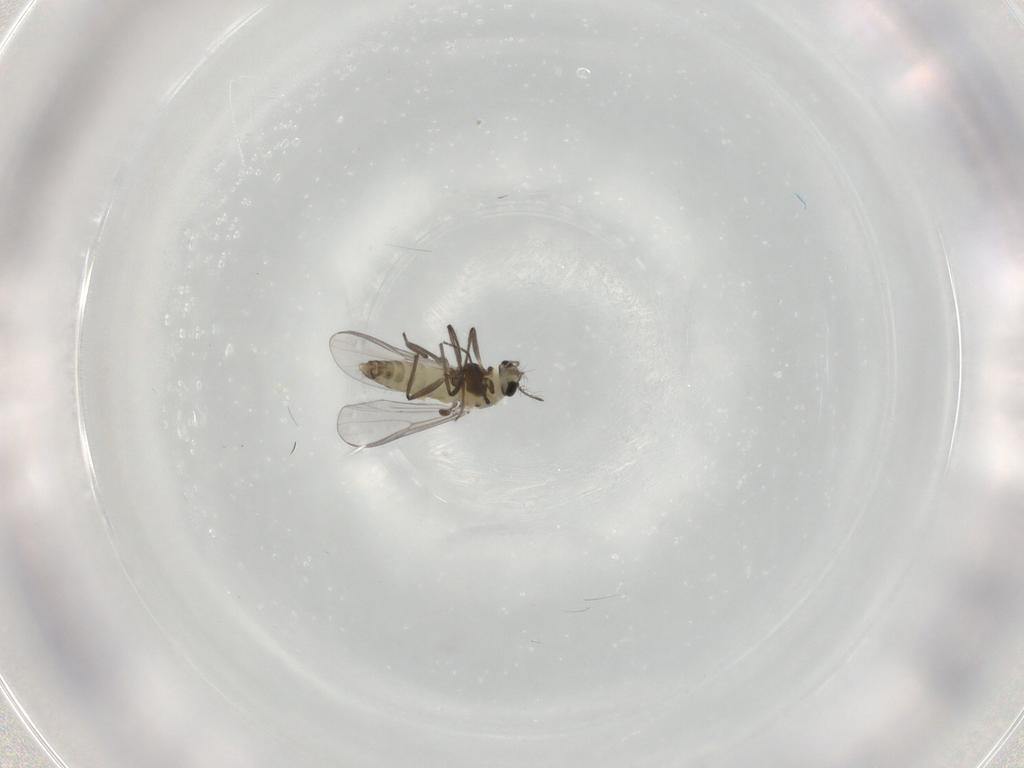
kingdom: Animalia
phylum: Arthropoda
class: Insecta
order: Diptera
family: Chironomidae
